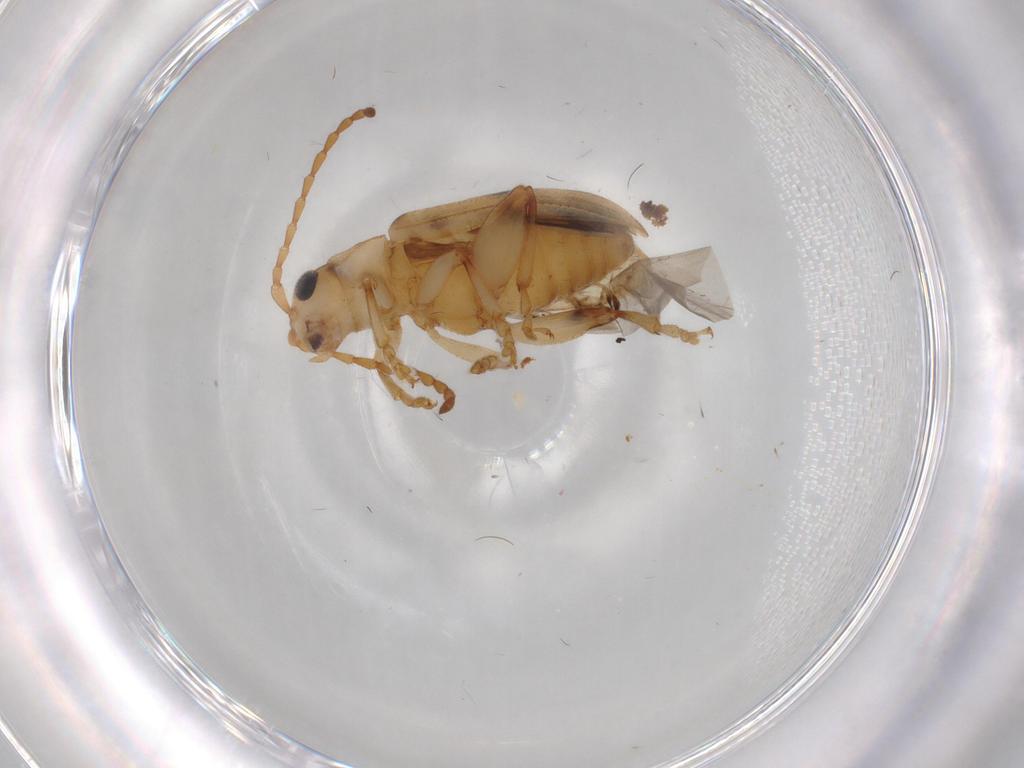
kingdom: Animalia
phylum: Arthropoda
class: Insecta
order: Coleoptera
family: Chrysomelidae
